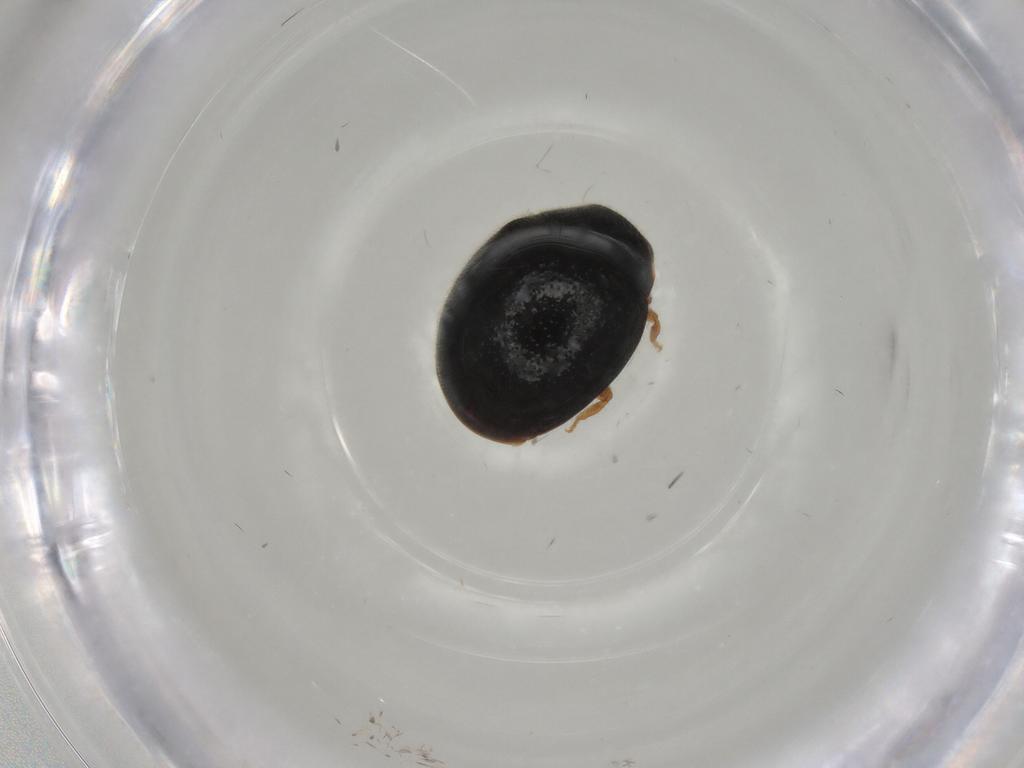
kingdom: Animalia
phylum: Arthropoda
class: Insecta
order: Coleoptera
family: Coccinellidae
